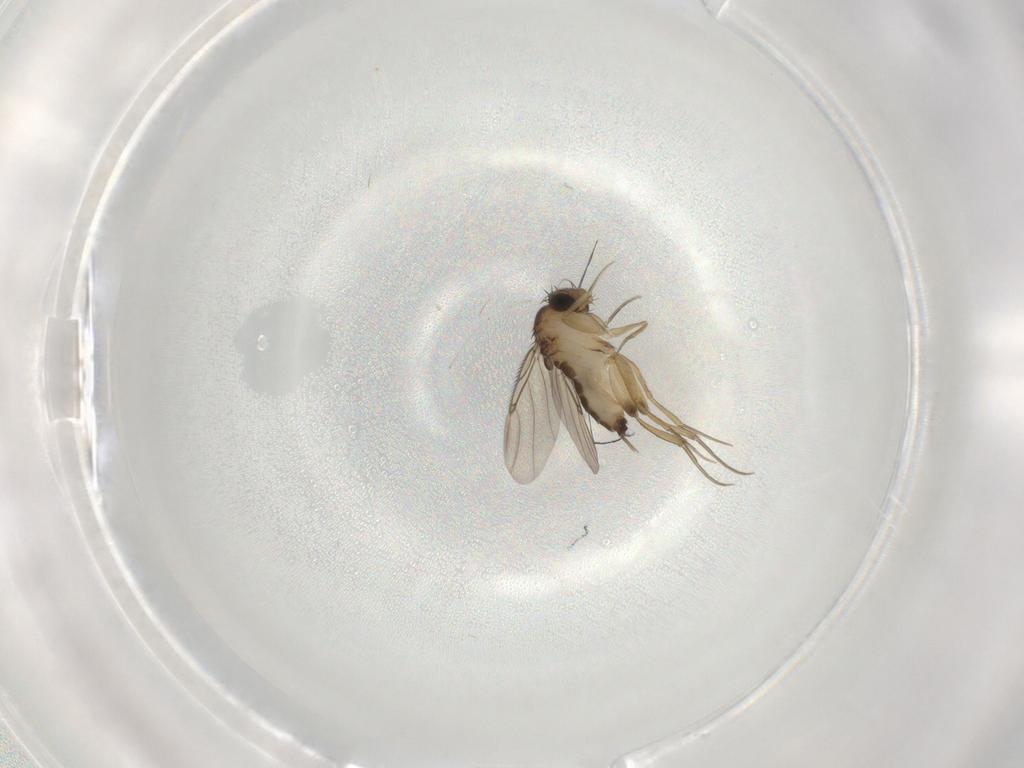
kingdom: Animalia
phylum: Arthropoda
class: Insecta
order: Diptera
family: Phoridae
